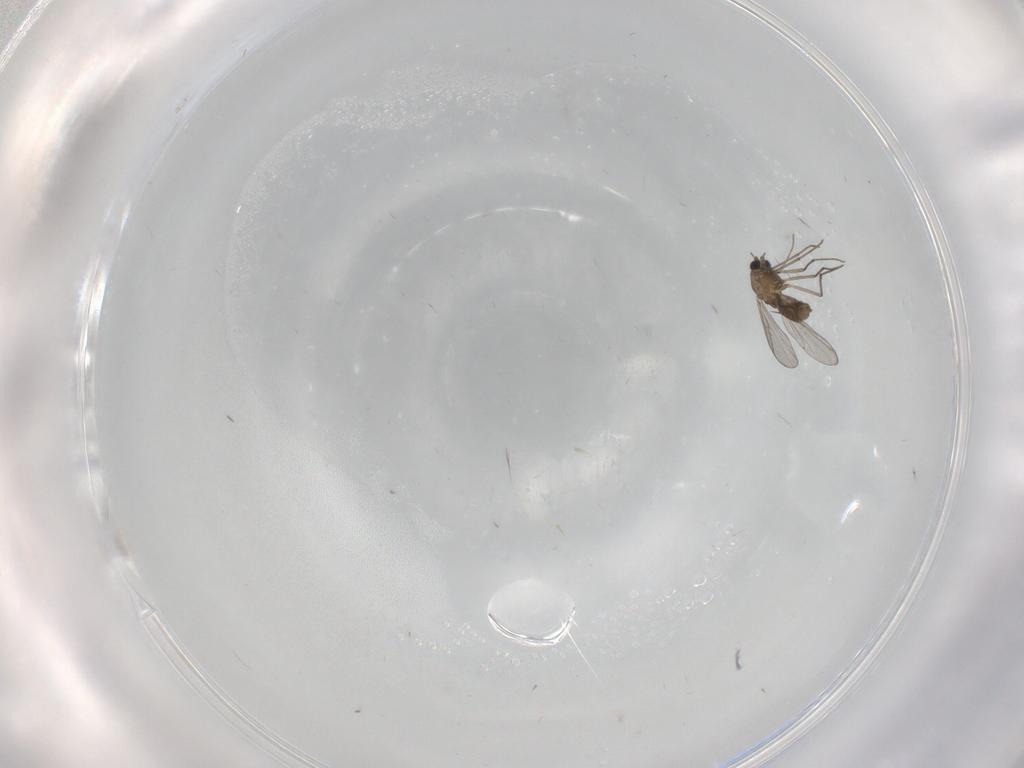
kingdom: Animalia
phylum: Arthropoda
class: Insecta
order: Diptera
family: Chironomidae
